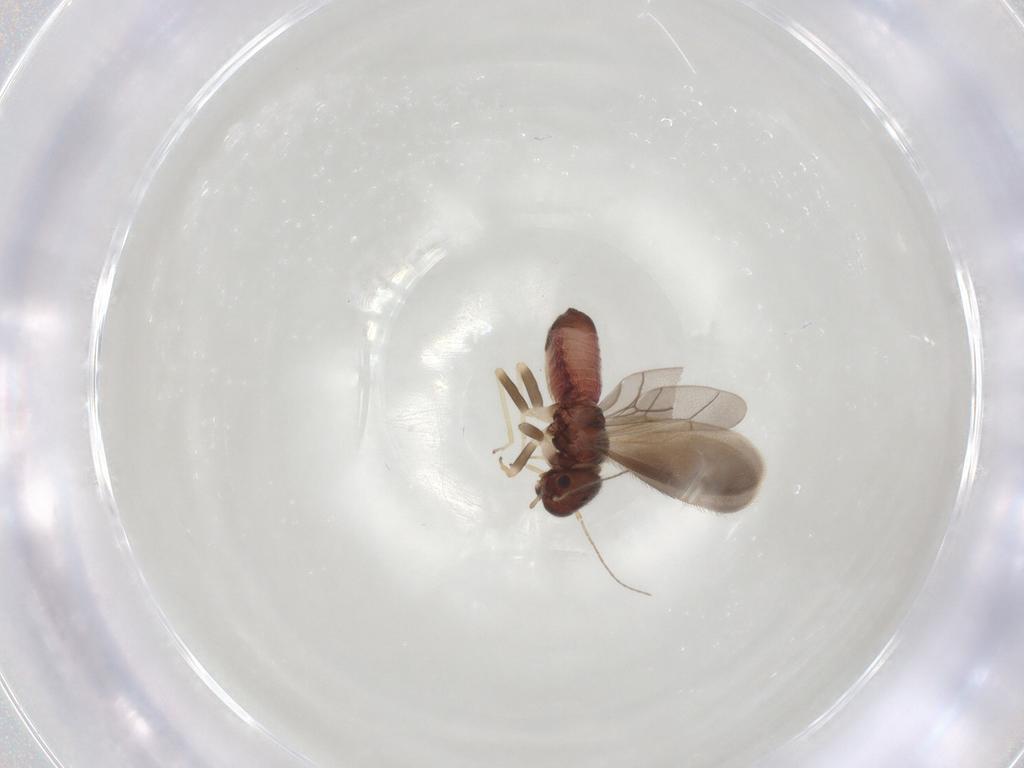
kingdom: Animalia
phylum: Arthropoda
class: Insecta
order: Psocodea
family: Archipsocidae
